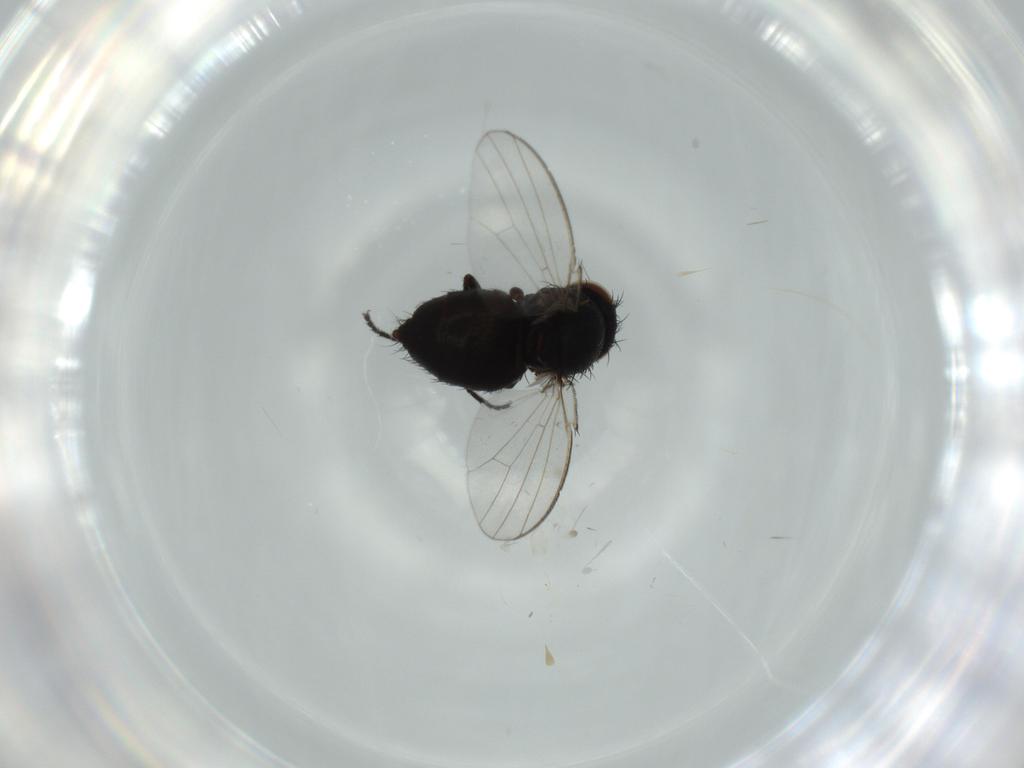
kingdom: Animalia
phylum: Arthropoda
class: Insecta
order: Diptera
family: Milichiidae
